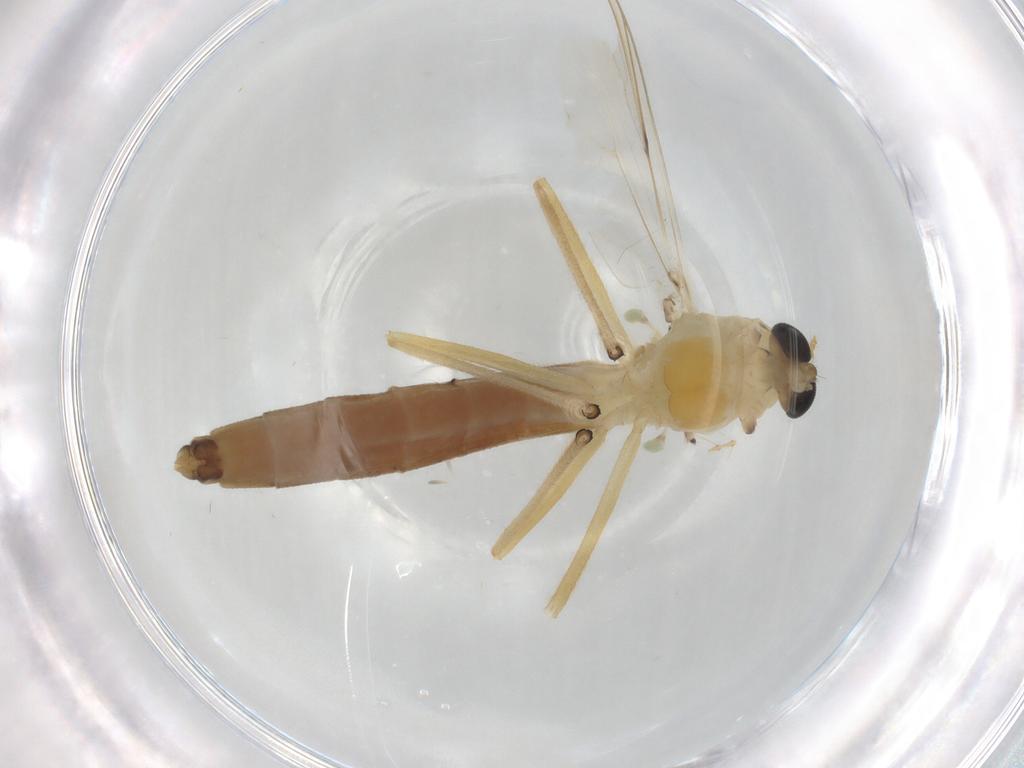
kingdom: Animalia
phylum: Arthropoda
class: Insecta
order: Diptera
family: Chironomidae
